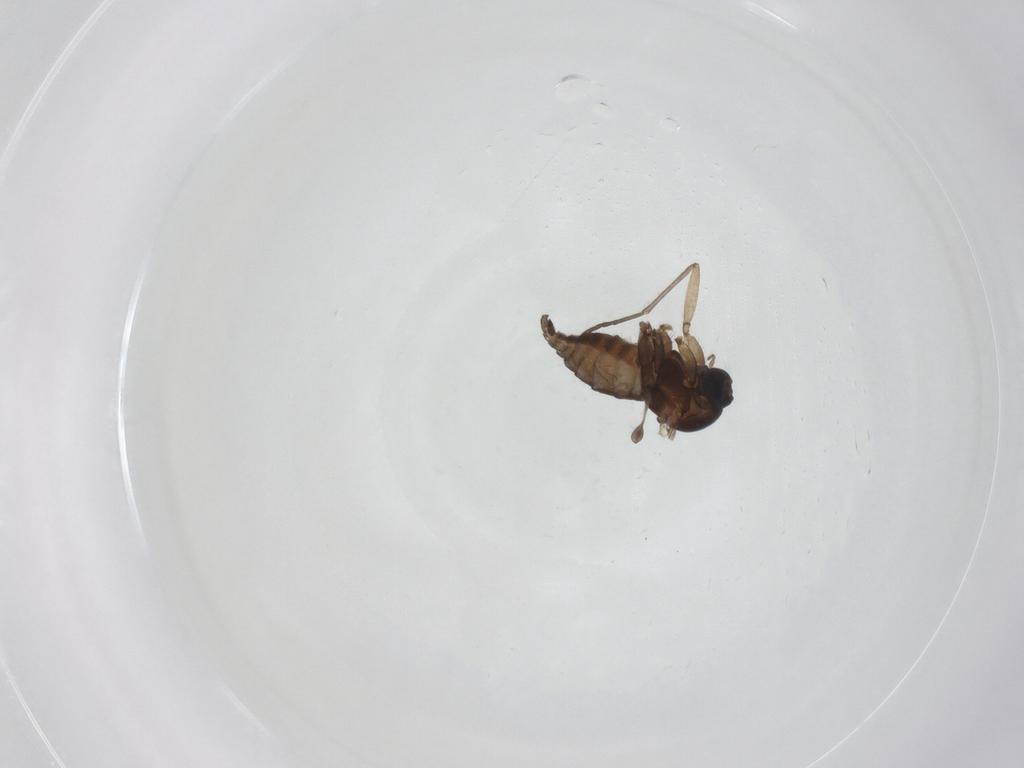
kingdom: Animalia
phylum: Arthropoda
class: Insecta
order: Diptera
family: Sciaridae
